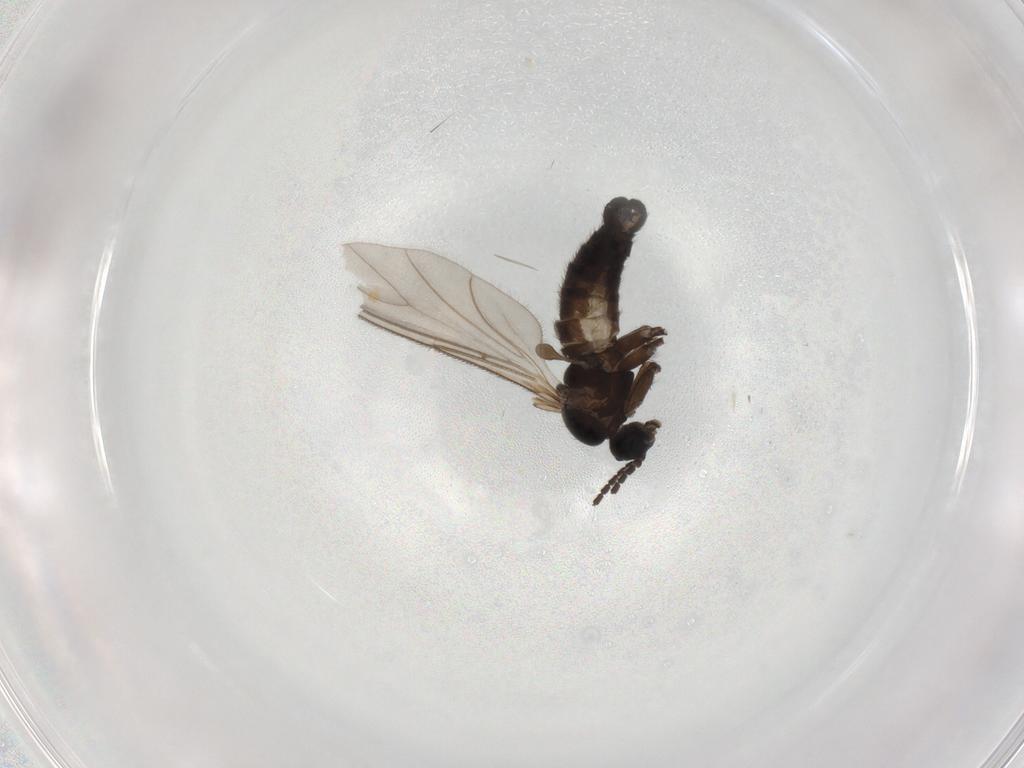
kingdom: Animalia
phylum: Arthropoda
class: Insecta
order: Diptera
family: Sciaridae
